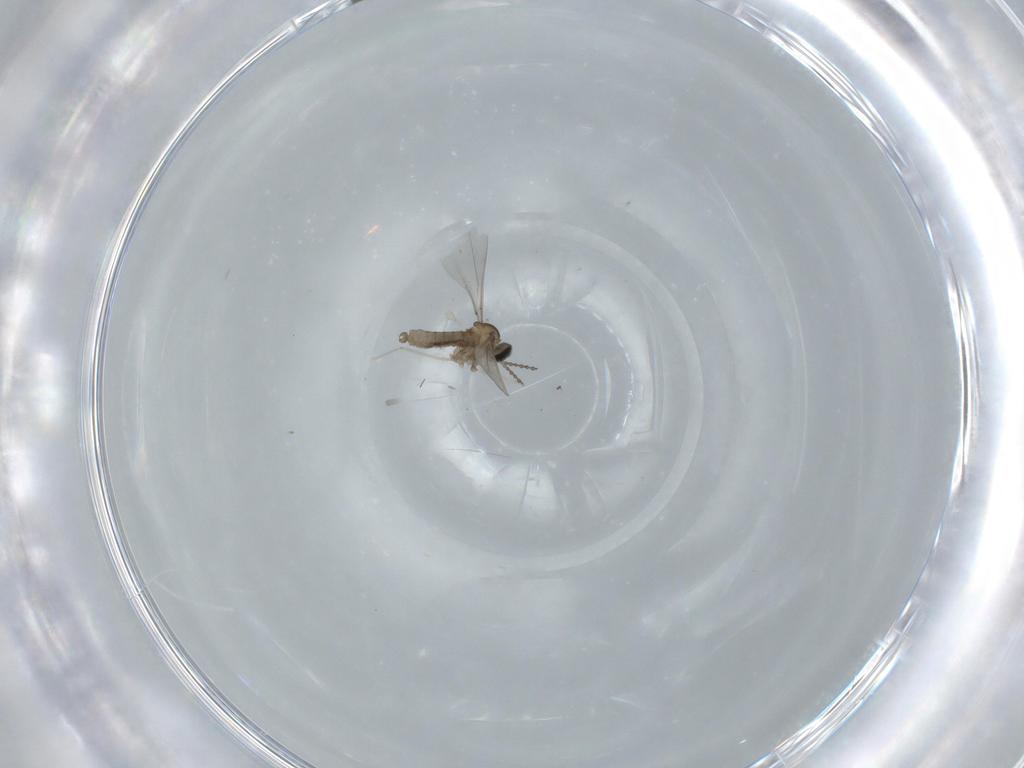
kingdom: Animalia
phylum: Arthropoda
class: Insecta
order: Diptera
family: Cecidomyiidae
